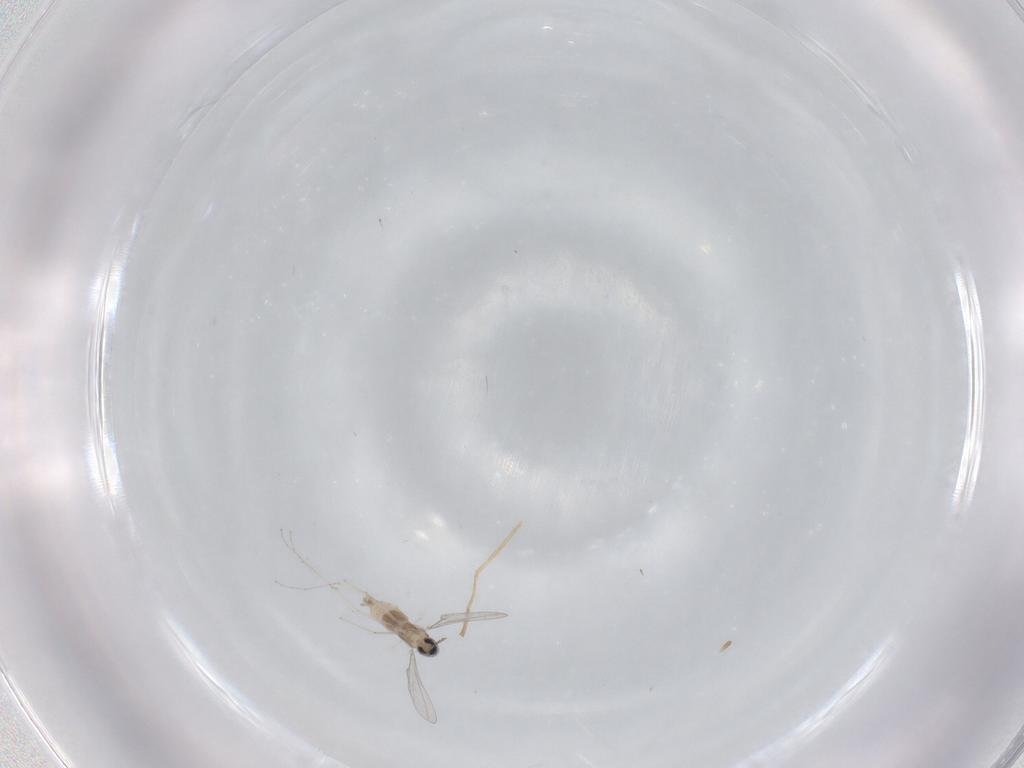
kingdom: Animalia
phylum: Arthropoda
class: Insecta
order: Diptera
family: Cecidomyiidae
